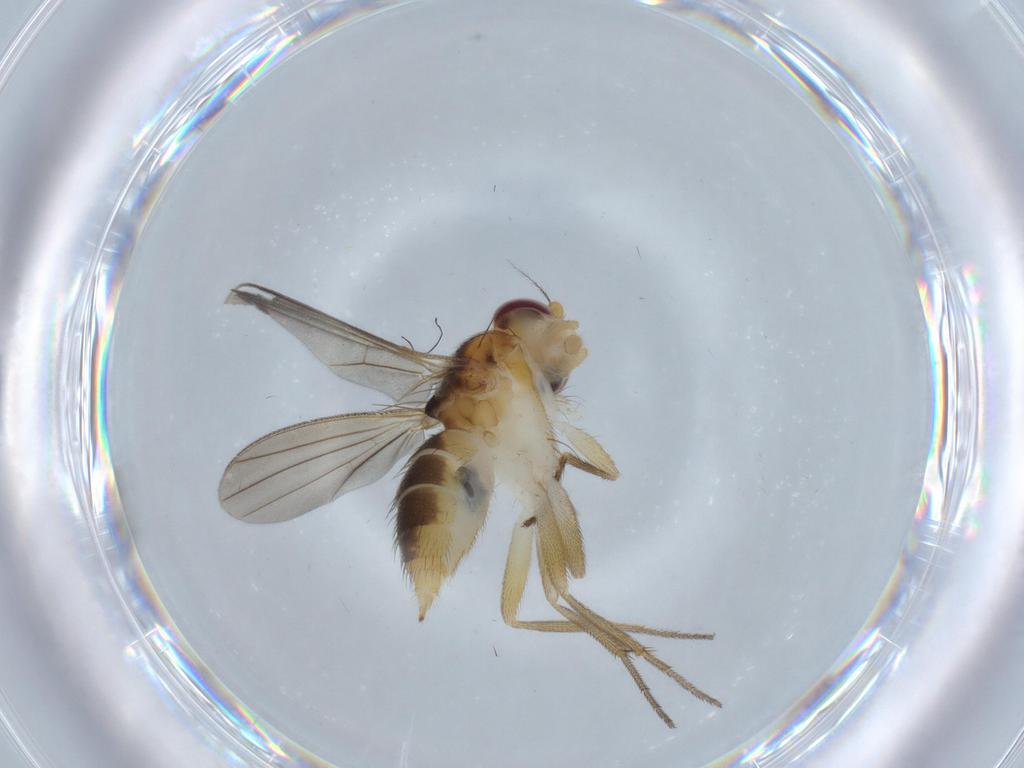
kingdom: Animalia
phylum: Arthropoda
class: Insecta
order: Diptera
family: Clusiidae
